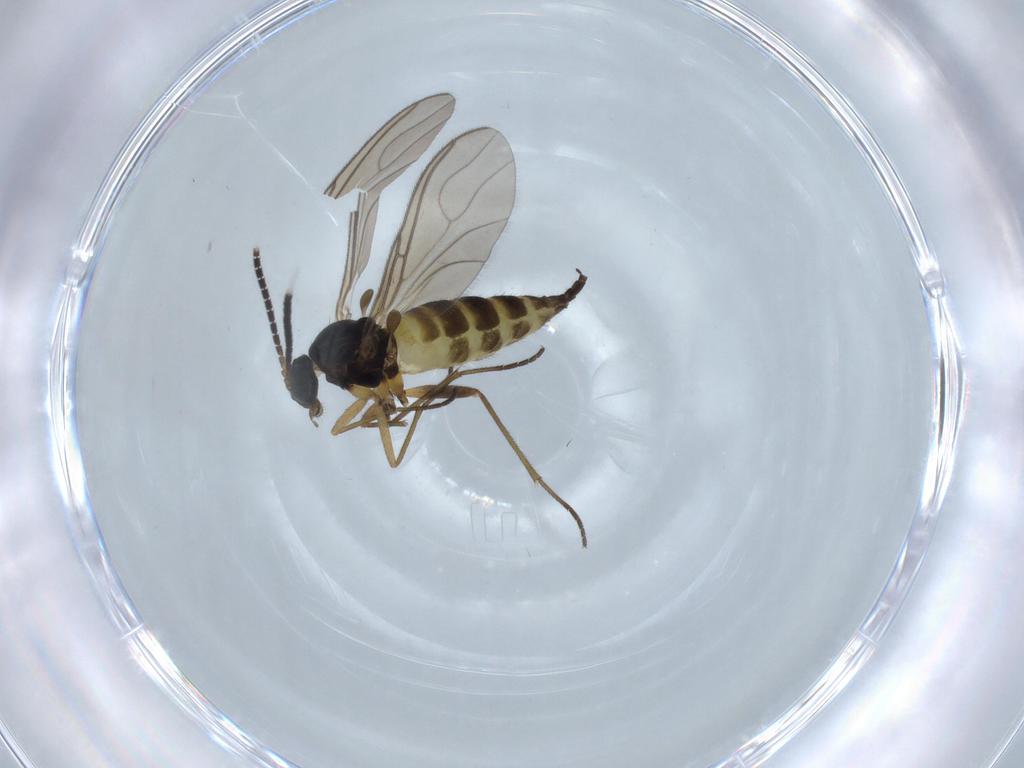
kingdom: Animalia
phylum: Arthropoda
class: Insecta
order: Diptera
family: Sciaridae
